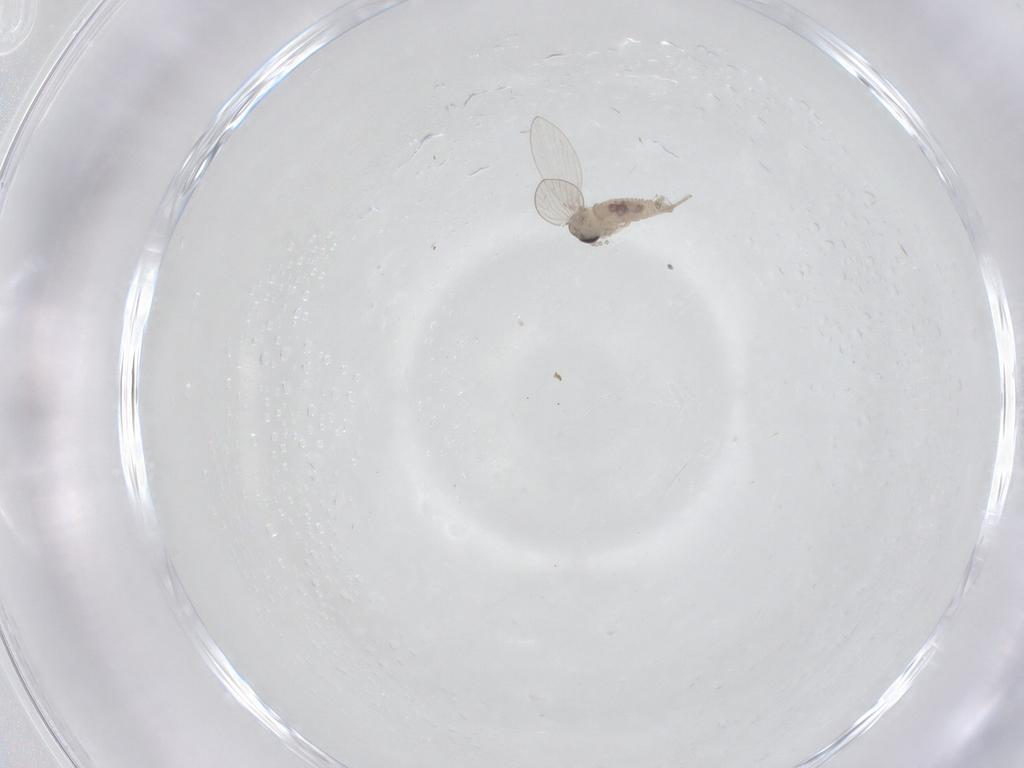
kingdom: Animalia
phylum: Arthropoda
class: Insecta
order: Diptera
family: Psychodidae
